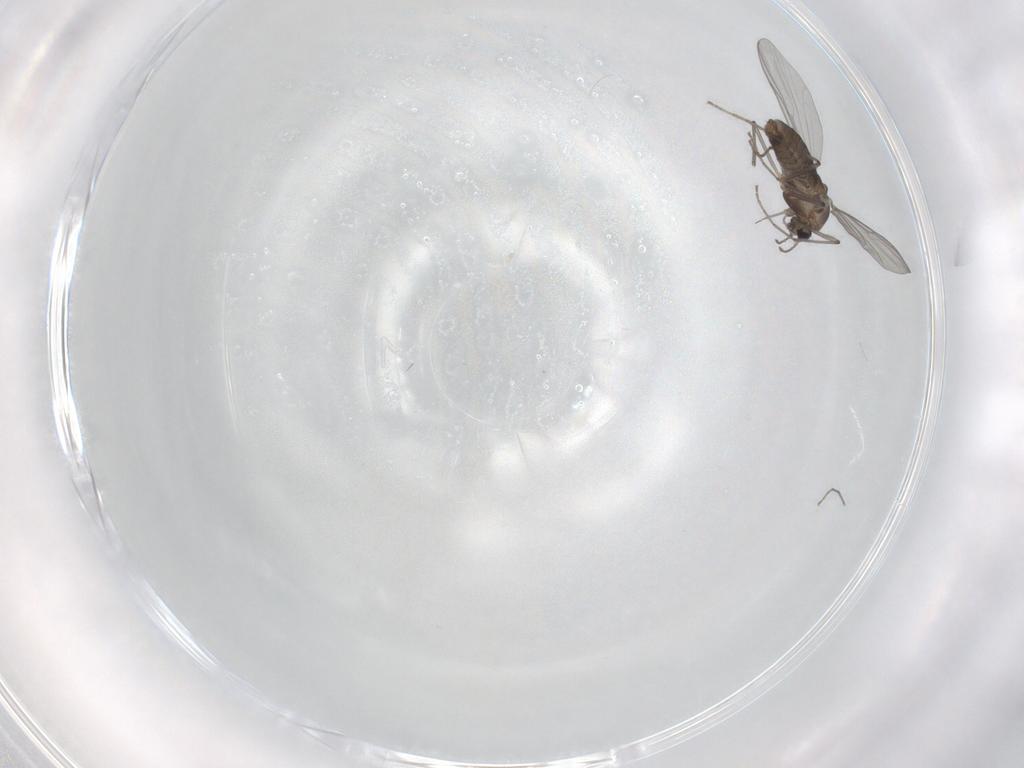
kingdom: Animalia
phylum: Arthropoda
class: Insecta
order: Diptera
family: Chironomidae
